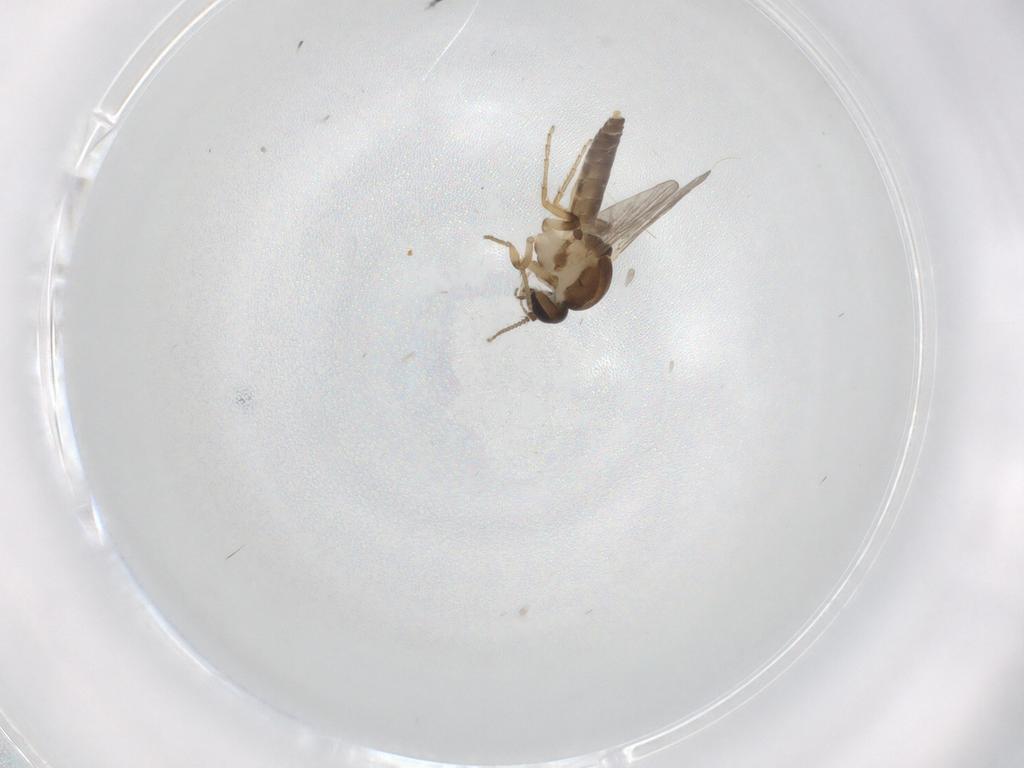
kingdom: Animalia
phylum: Arthropoda
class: Insecta
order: Diptera
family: Ceratopogonidae
